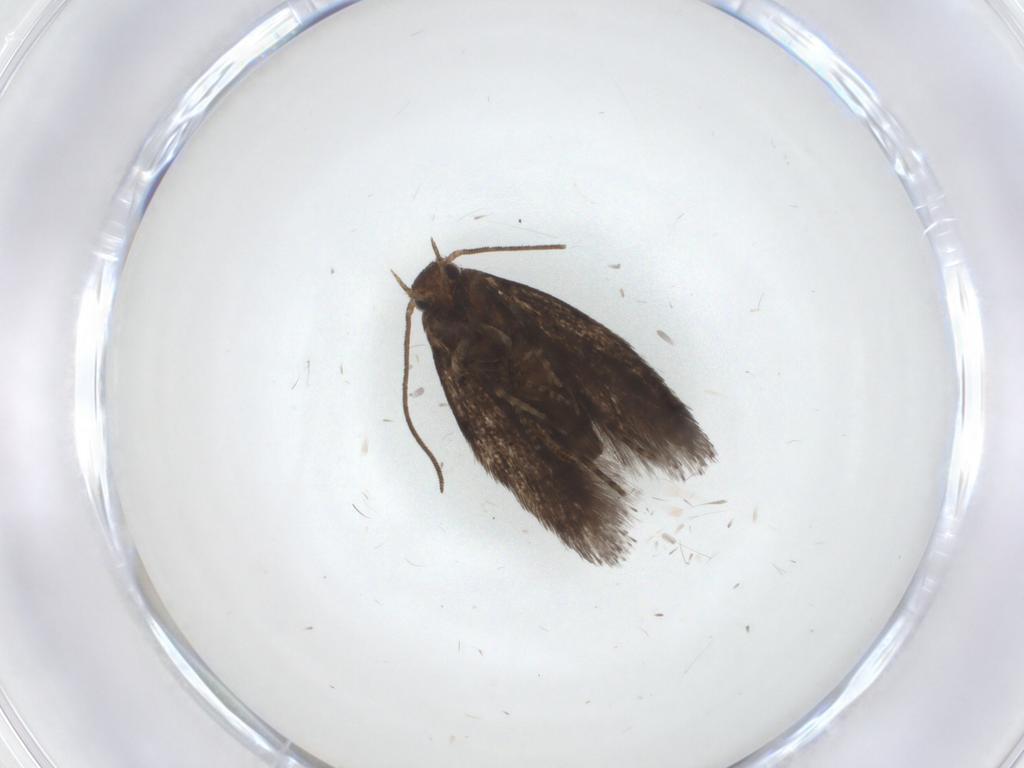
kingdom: Animalia
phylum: Arthropoda
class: Insecta
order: Lepidoptera
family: Pieridae
